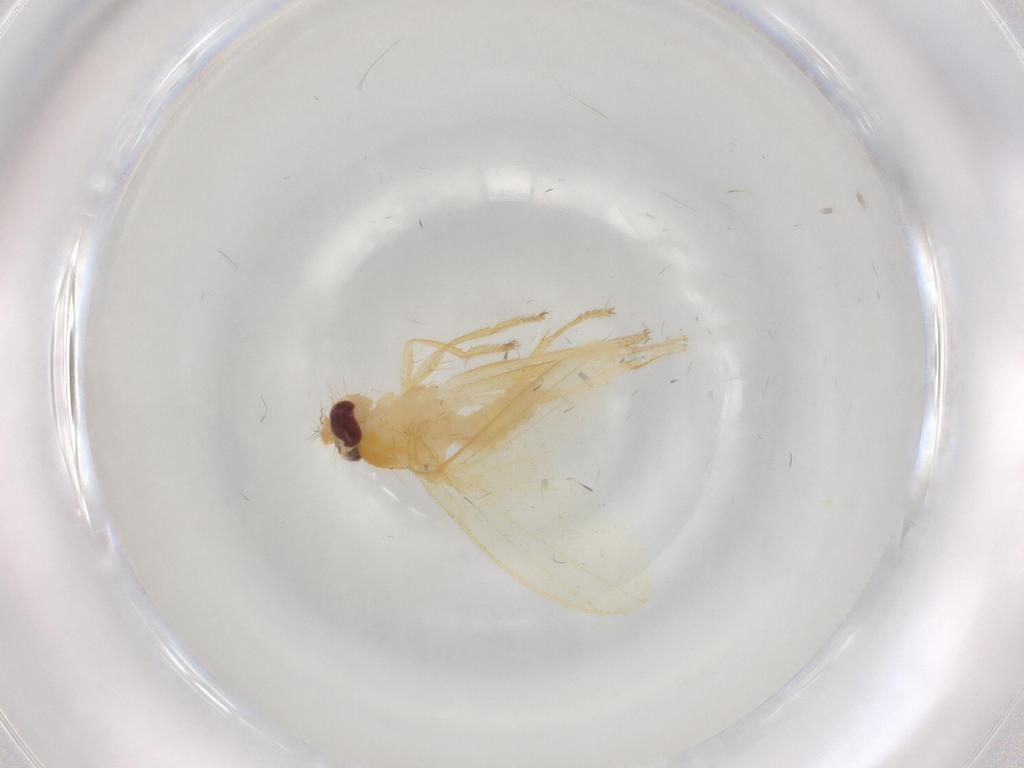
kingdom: Animalia
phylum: Arthropoda
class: Insecta
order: Diptera
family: Periscelididae
